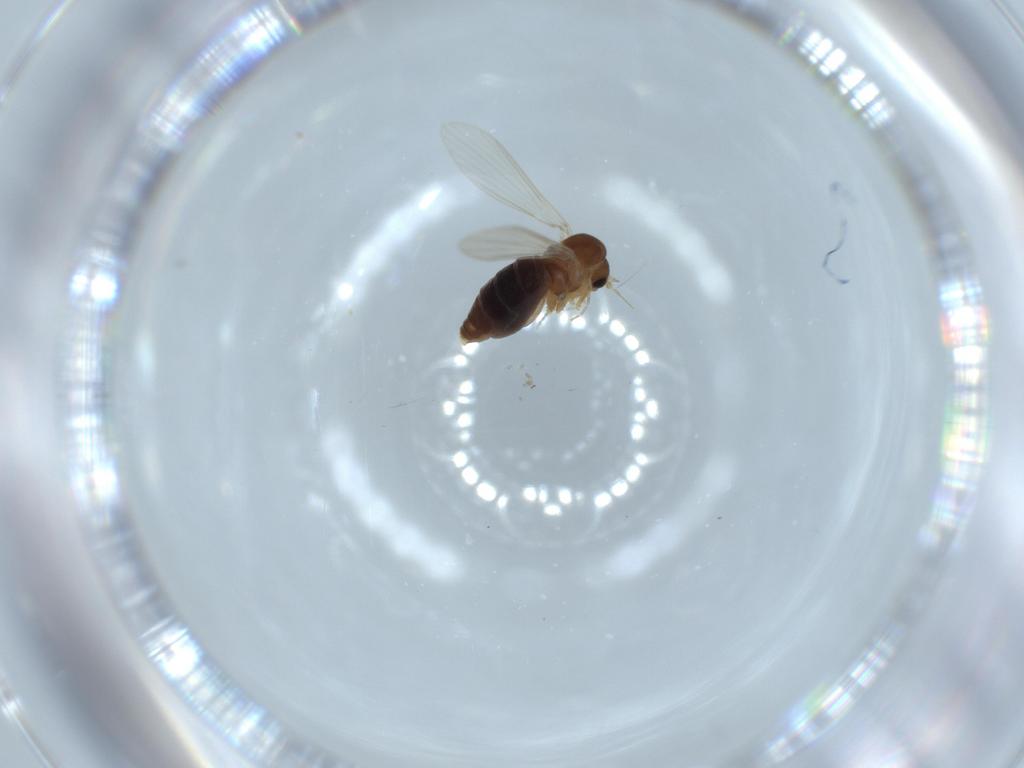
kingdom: Animalia
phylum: Arthropoda
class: Insecta
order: Diptera
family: Psychodidae
